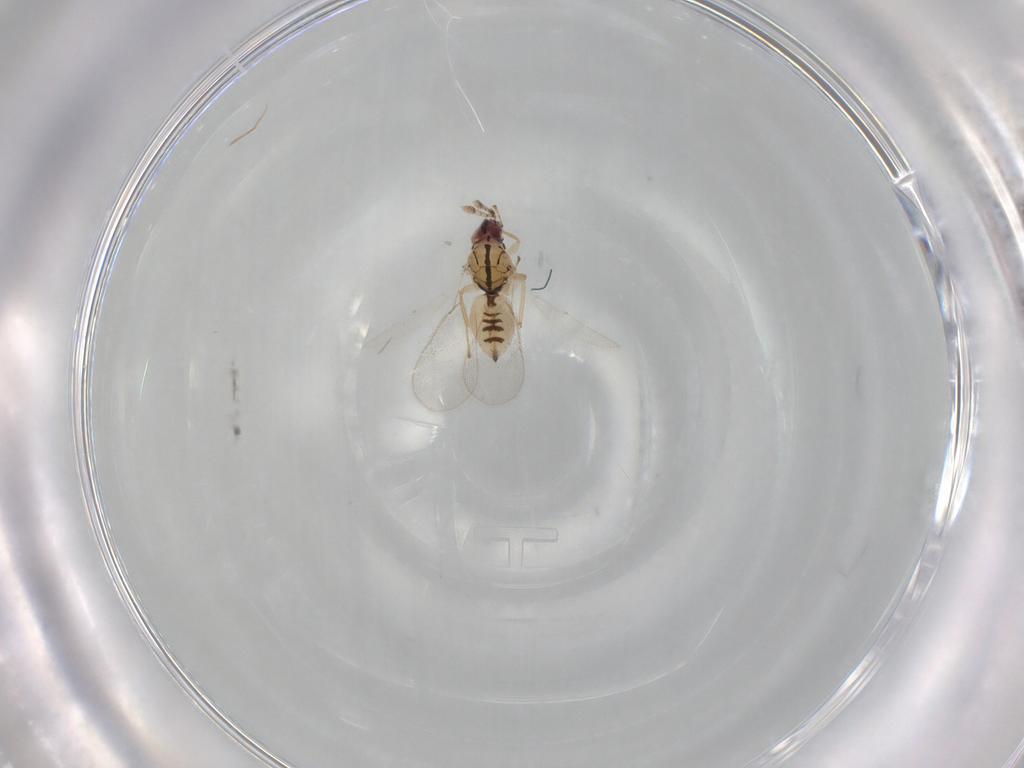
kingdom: Animalia
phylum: Arthropoda
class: Insecta
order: Hymenoptera
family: Eulophidae
